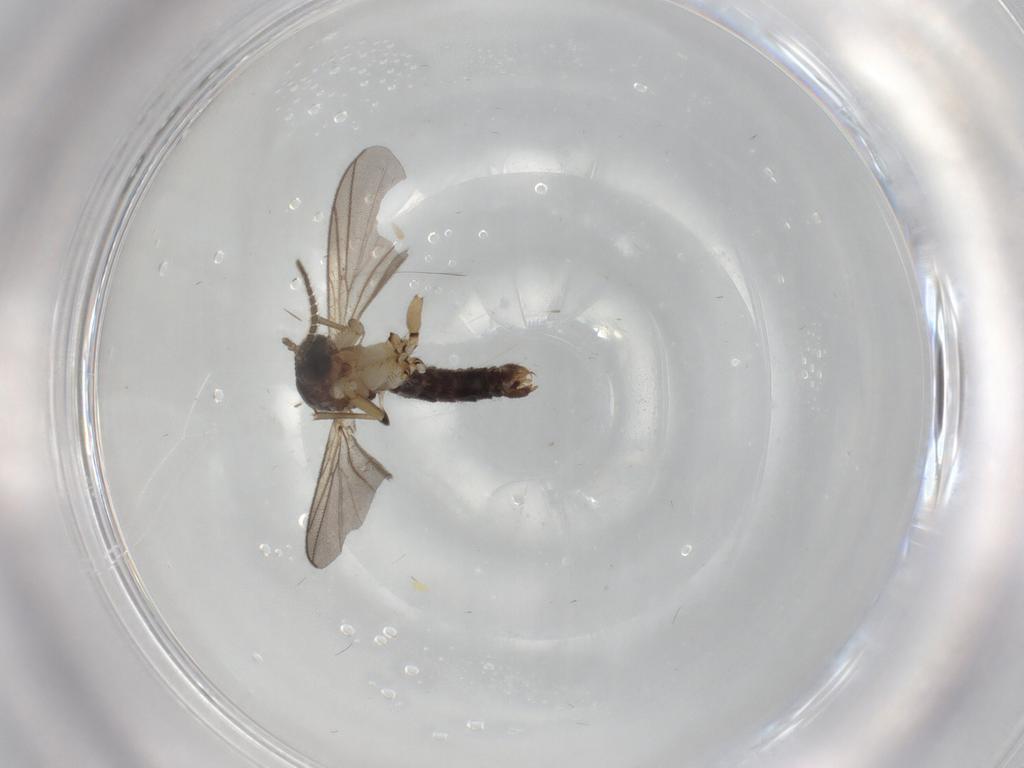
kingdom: Animalia
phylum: Arthropoda
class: Insecta
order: Diptera
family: Mycetophilidae
